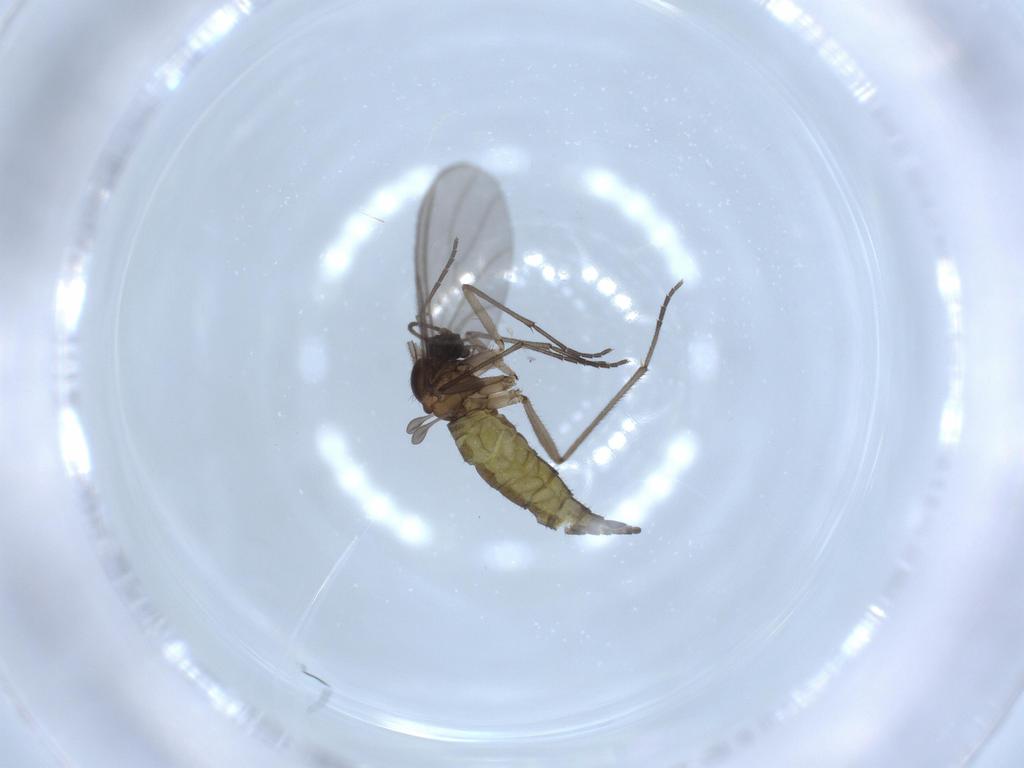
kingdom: Animalia
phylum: Arthropoda
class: Insecta
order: Diptera
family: Sciaridae
